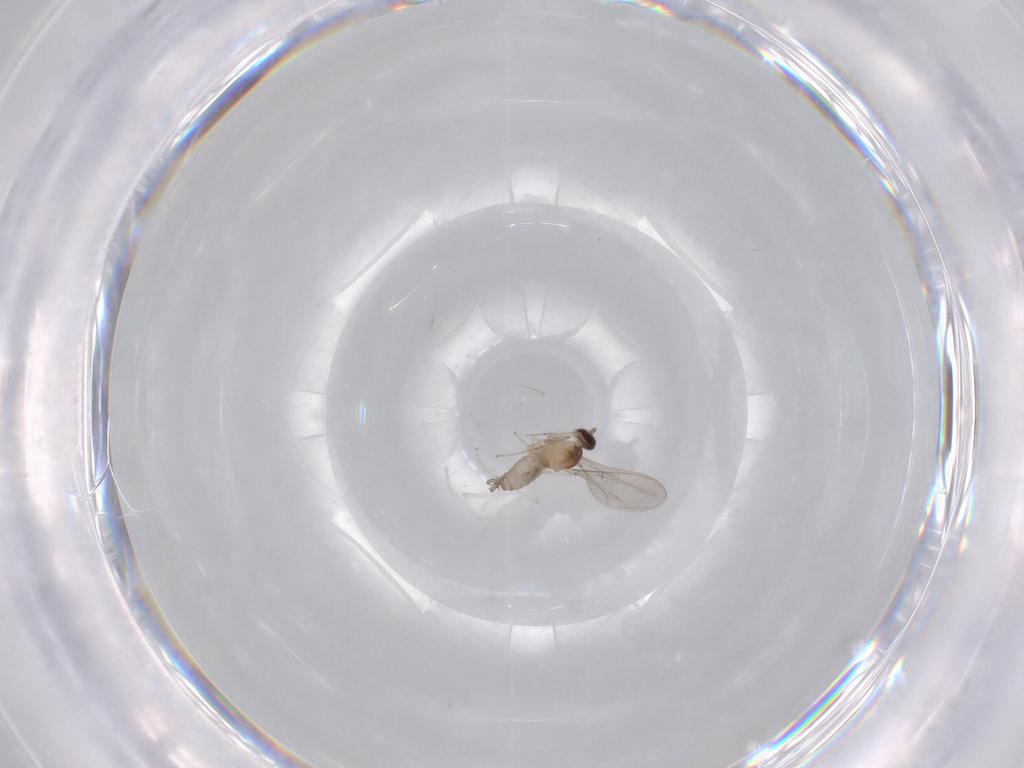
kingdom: Animalia
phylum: Arthropoda
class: Insecta
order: Diptera
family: Cecidomyiidae
